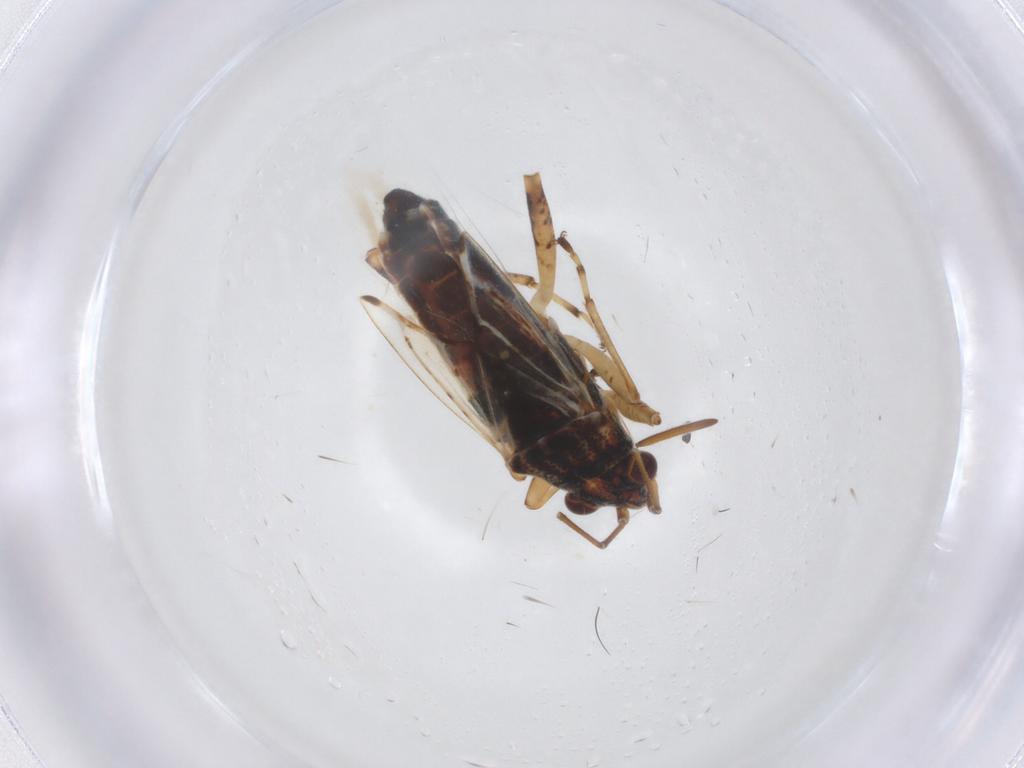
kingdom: Animalia
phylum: Arthropoda
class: Insecta
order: Hemiptera
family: Lygaeidae
